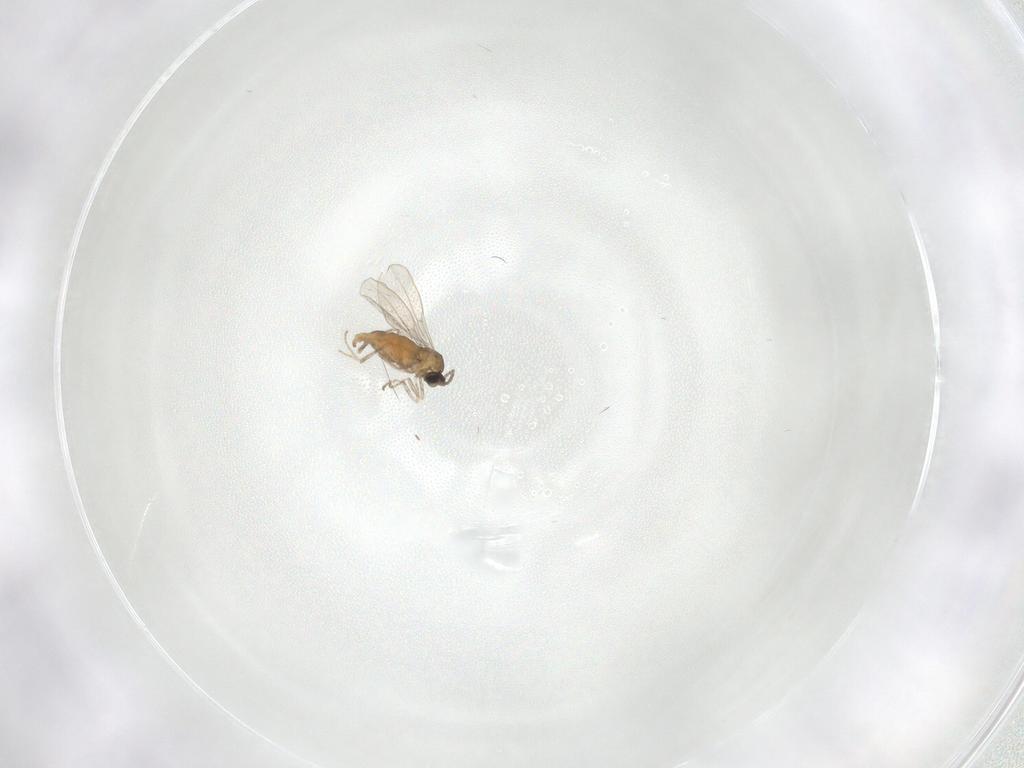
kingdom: Animalia
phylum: Arthropoda
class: Insecta
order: Diptera
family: Cecidomyiidae
